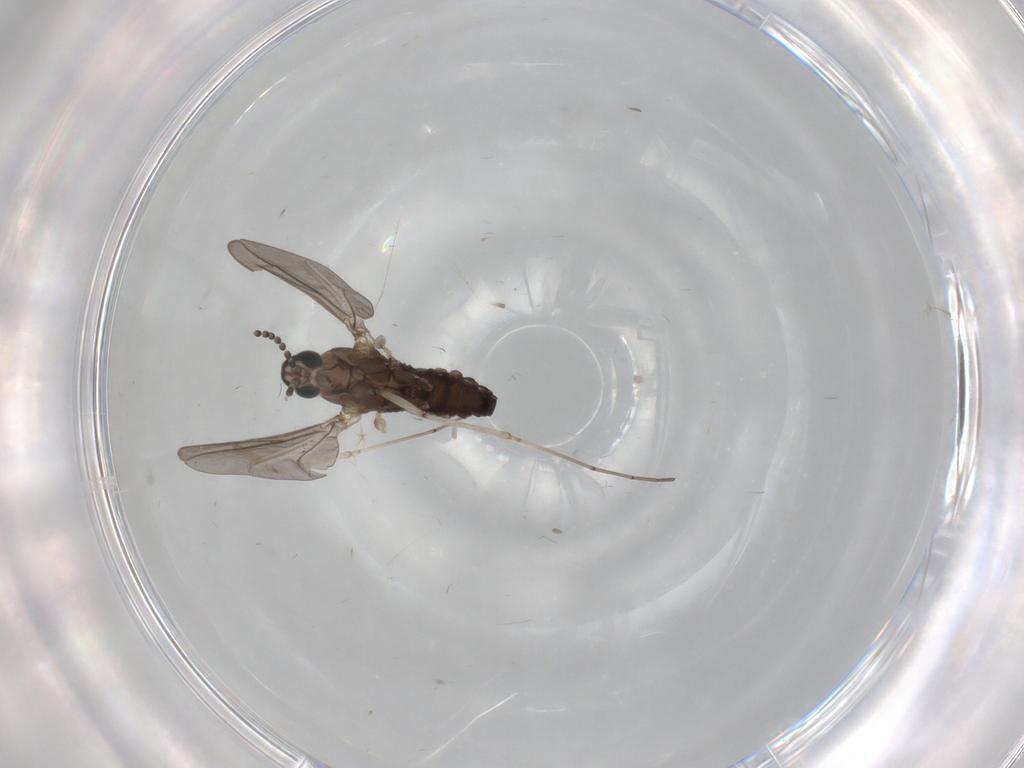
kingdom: Animalia
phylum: Arthropoda
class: Insecta
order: Diptera
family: Cecidomyiidae
